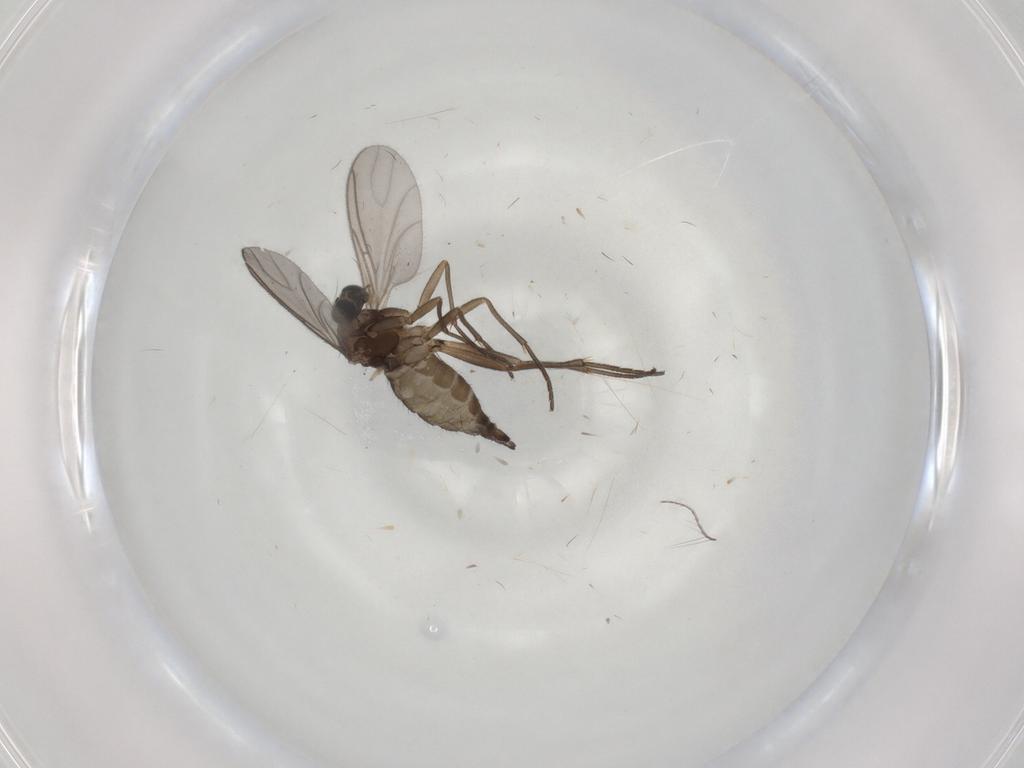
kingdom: Animalia
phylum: Arthropoda
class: Insecta
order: Diptera
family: Sciaridae
